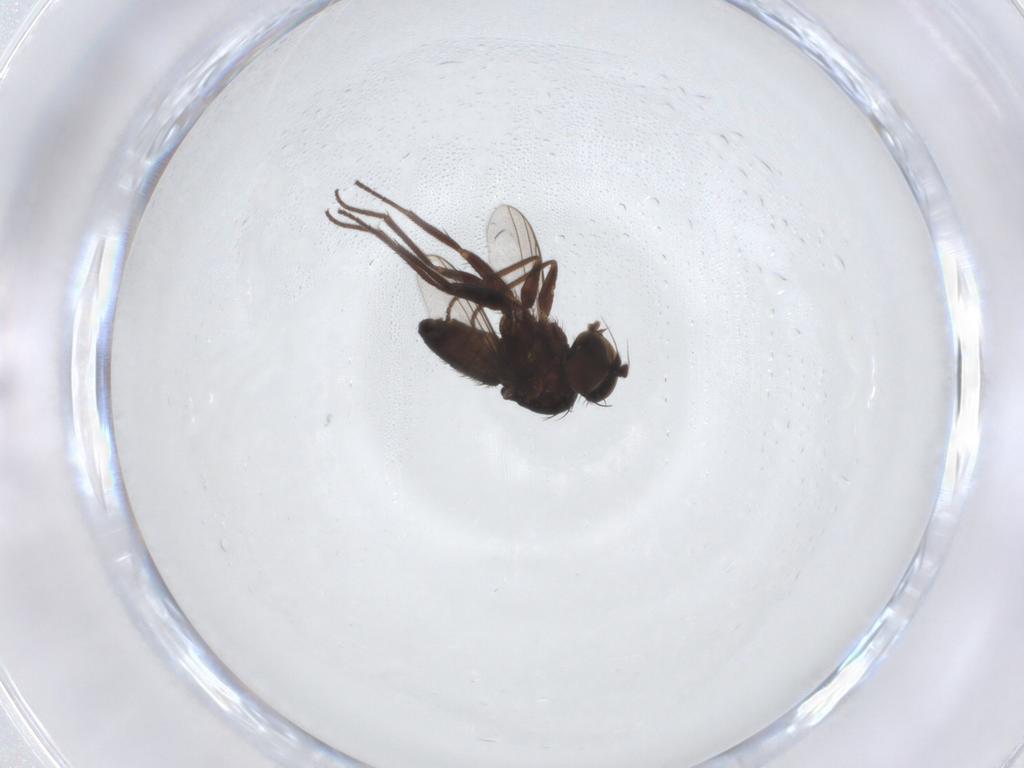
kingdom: Animalia
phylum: Arthropoda
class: Insecta
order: Diptera
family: Dolichopodidae
